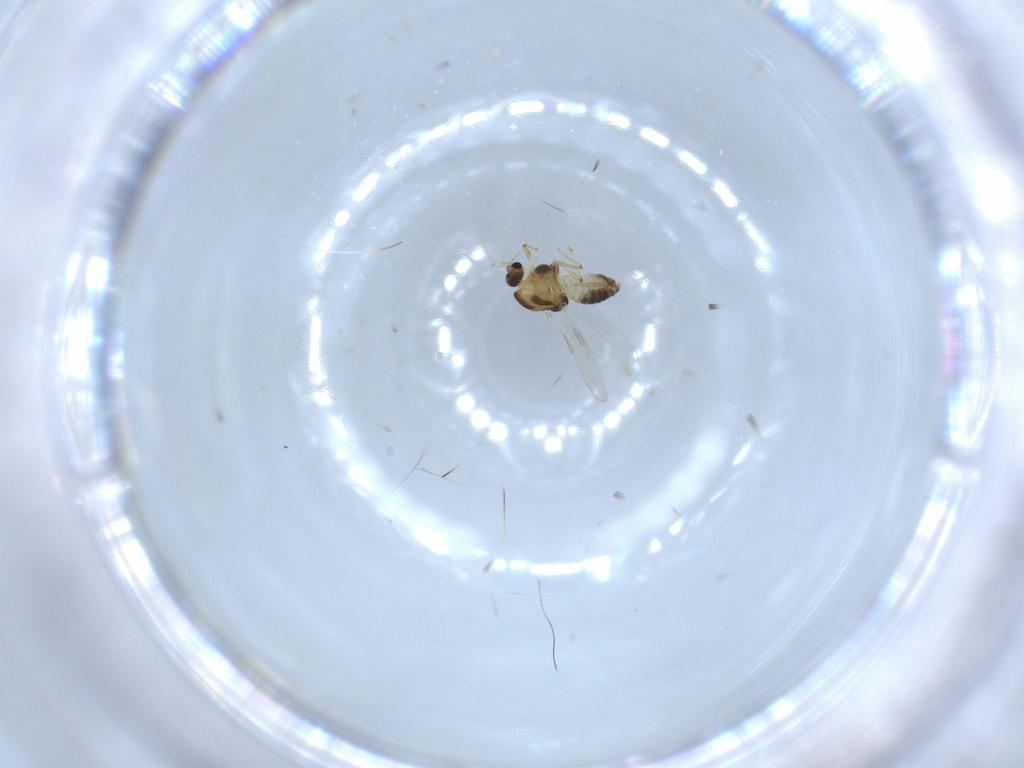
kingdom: Animalia
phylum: Arthropoda
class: Insecta
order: Diptera
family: Chironomidae
